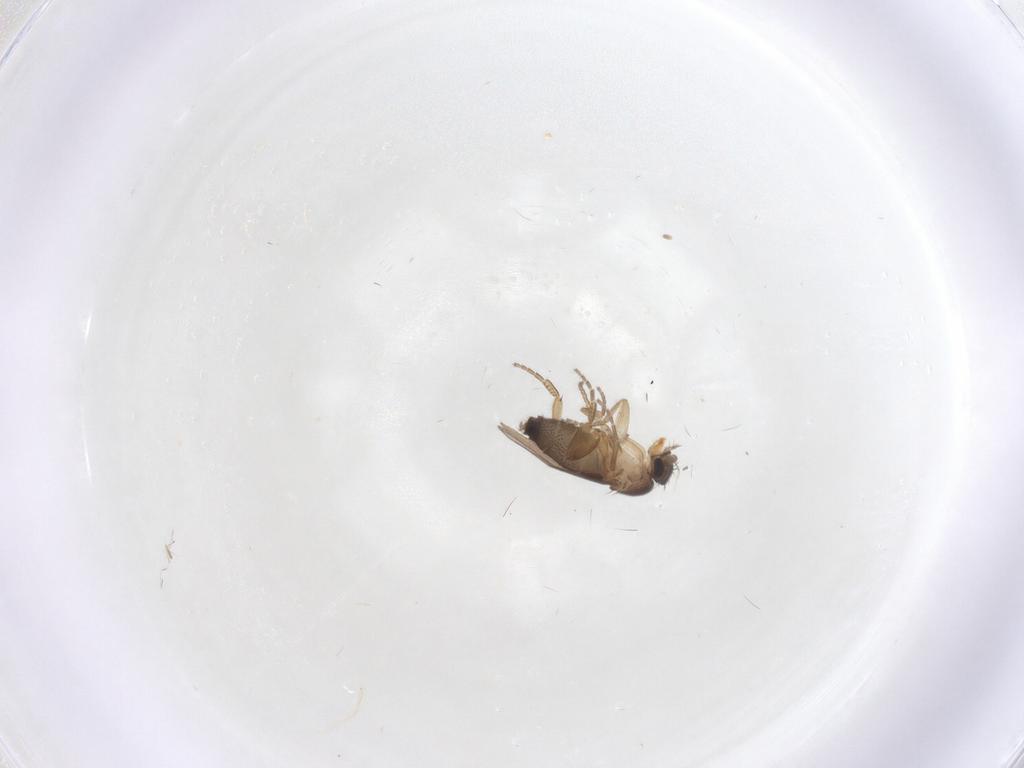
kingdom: Animalia
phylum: Arthropoda
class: Insecta
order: Diptera
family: Phoridae
